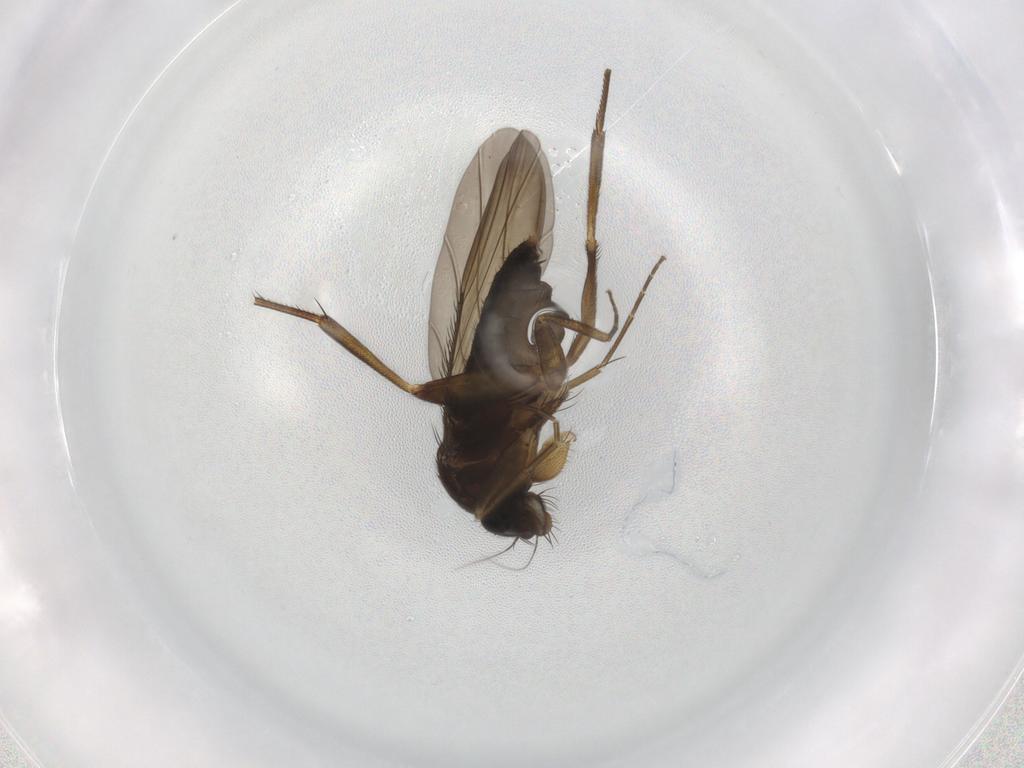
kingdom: Animalia
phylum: Arthropoda
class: Insecta
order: Diptera
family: Phoridae
